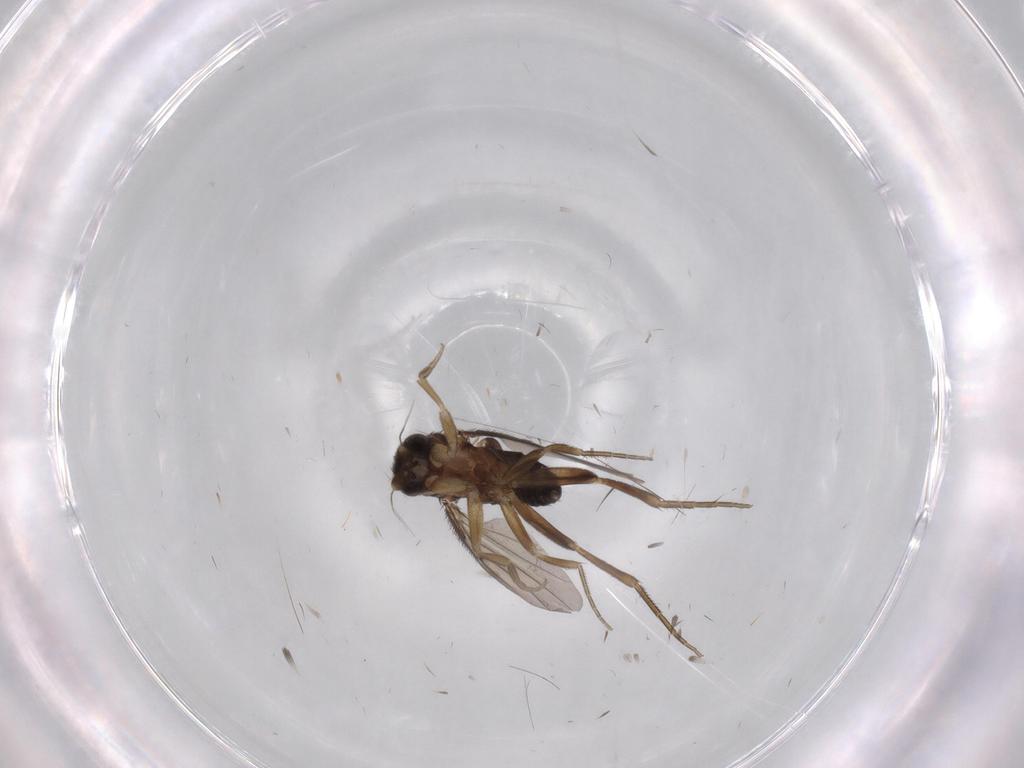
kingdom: Animalia
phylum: Arthropoda
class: Insecta
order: Diptera
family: Phoridae
